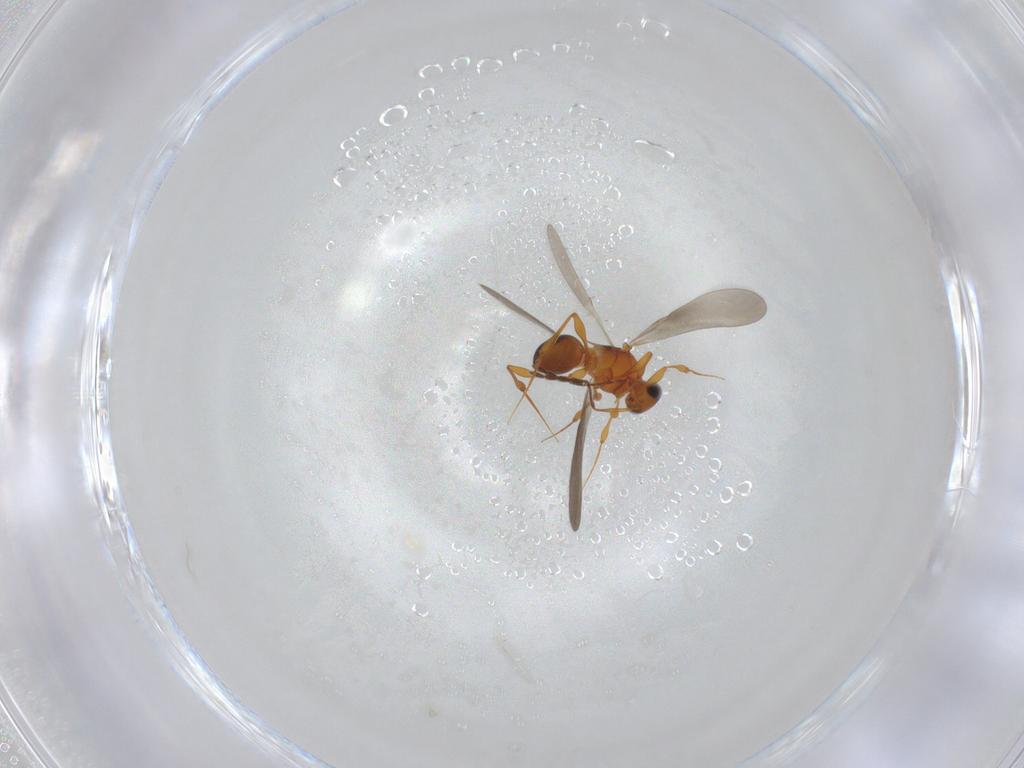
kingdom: Animalia
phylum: Arthropoda
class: Insecta
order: Hymenoptera
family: Platygastridae
